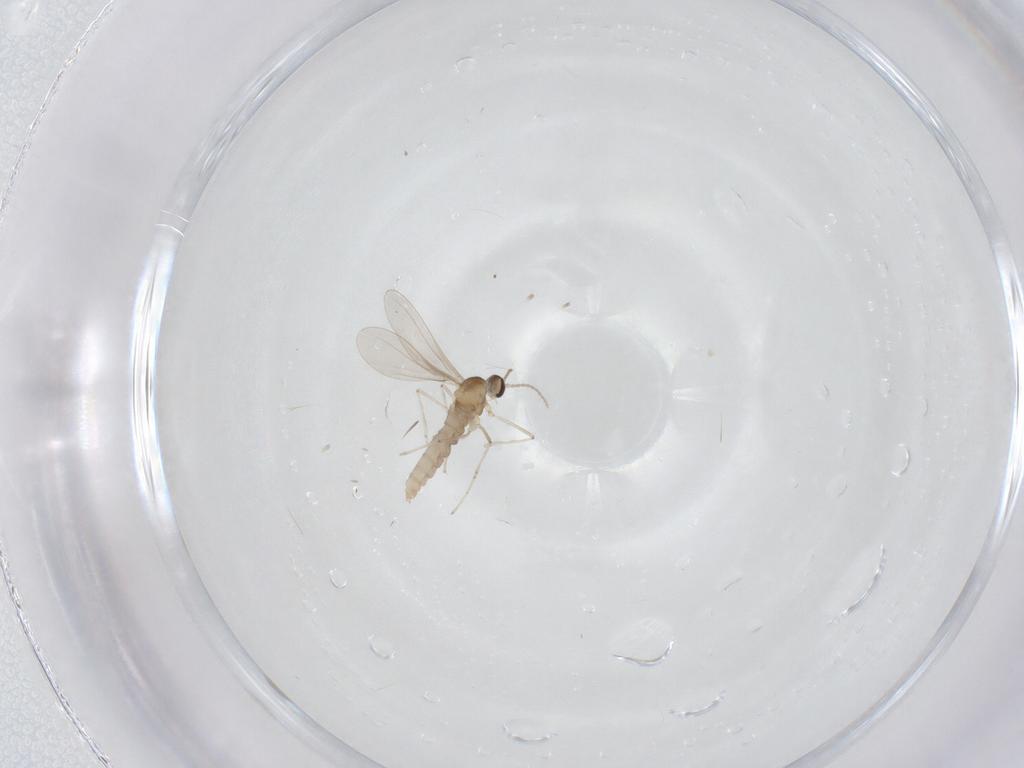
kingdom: Animalia
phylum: Arthropoda
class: Insecta
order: Diptera
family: Cecidomyiidae
